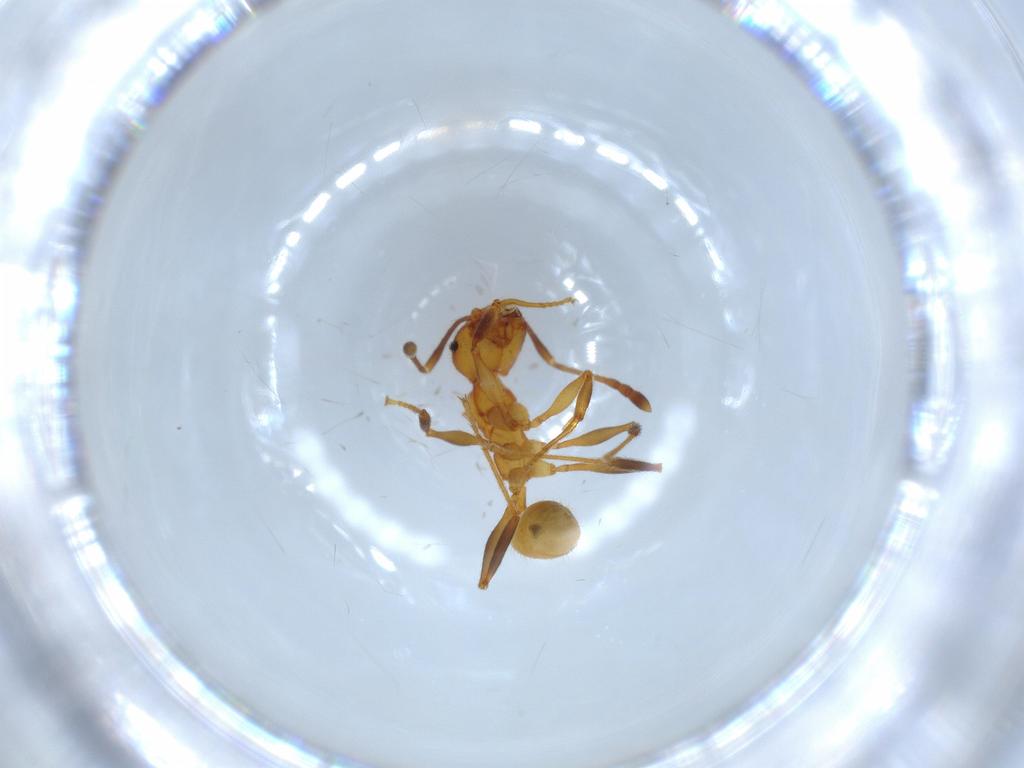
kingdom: Animalia
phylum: Arthropoda
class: Insecta
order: Hymenoptera
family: Formicidae
